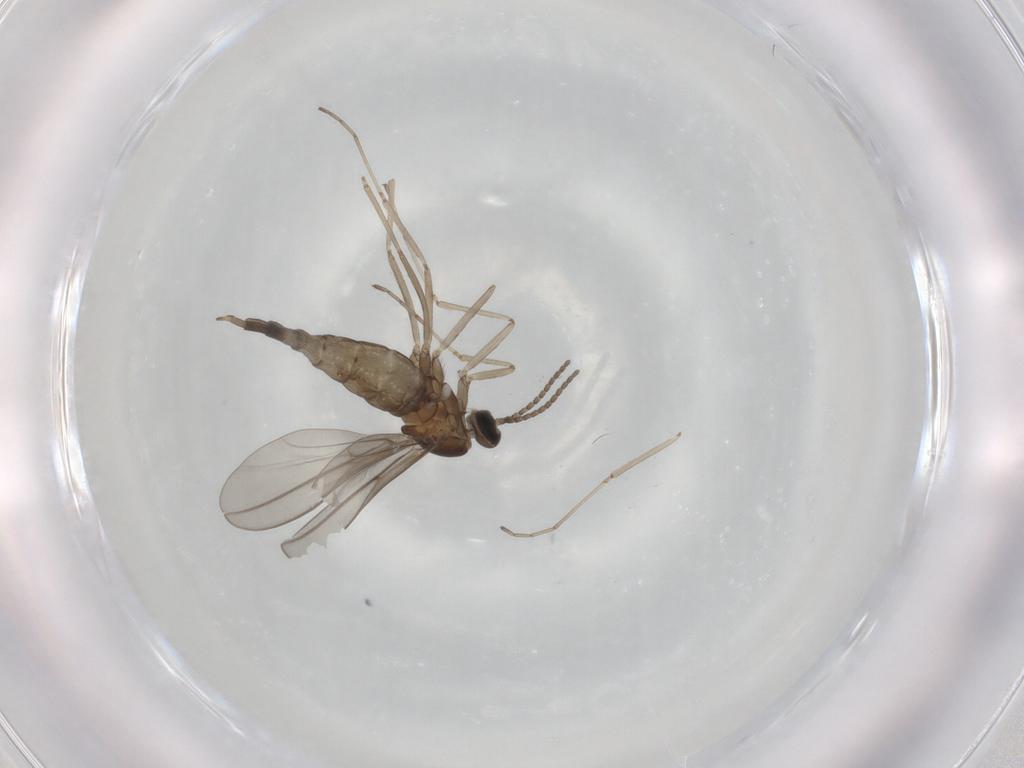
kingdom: Animalia
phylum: Arthropoda
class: Insecta
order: Diptera
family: Cecidomyiidae
